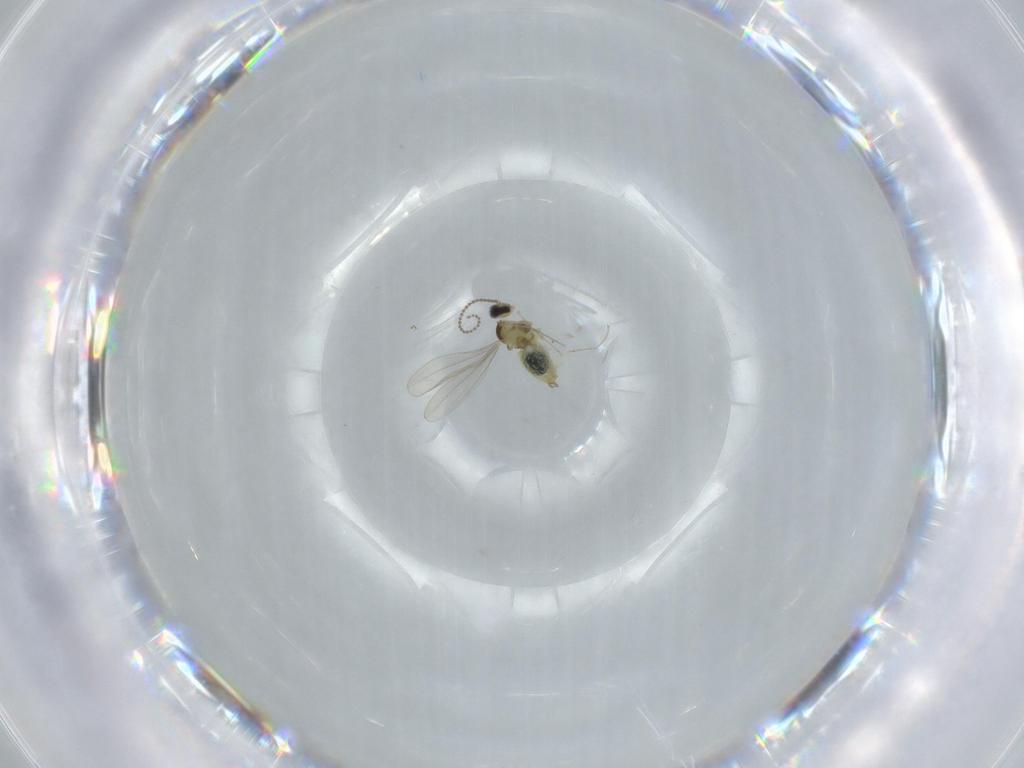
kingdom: Animalia
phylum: Arthropoda
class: Insecta
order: Diptera
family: Cecidomyiidae
